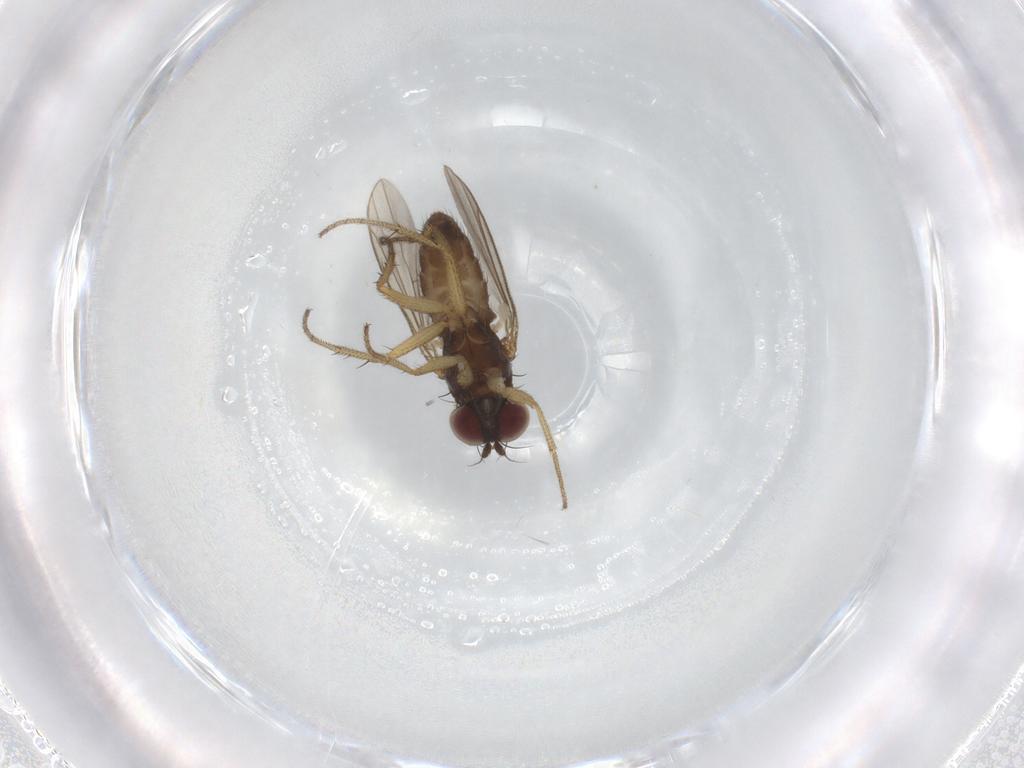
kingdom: Animalia
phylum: Arthropoda
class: Insecta
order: Diptera
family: Dolichopodidae
